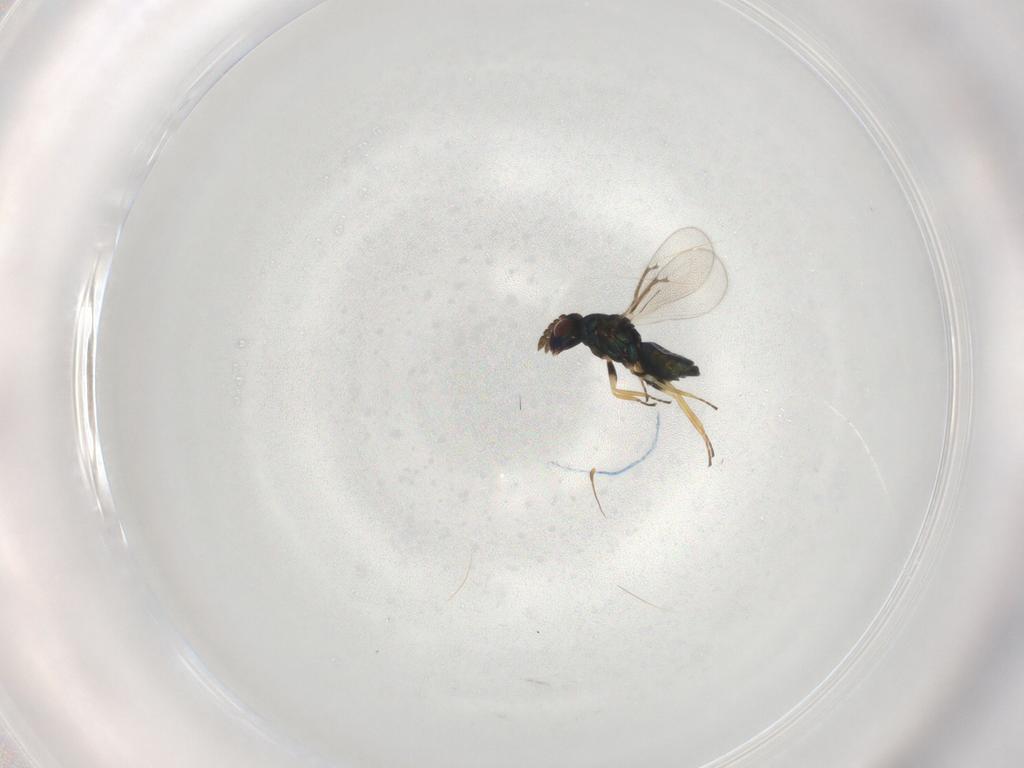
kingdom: Animalia
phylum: Arthropoda
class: Insecta
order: Hymenoptera
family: Eulophidae
